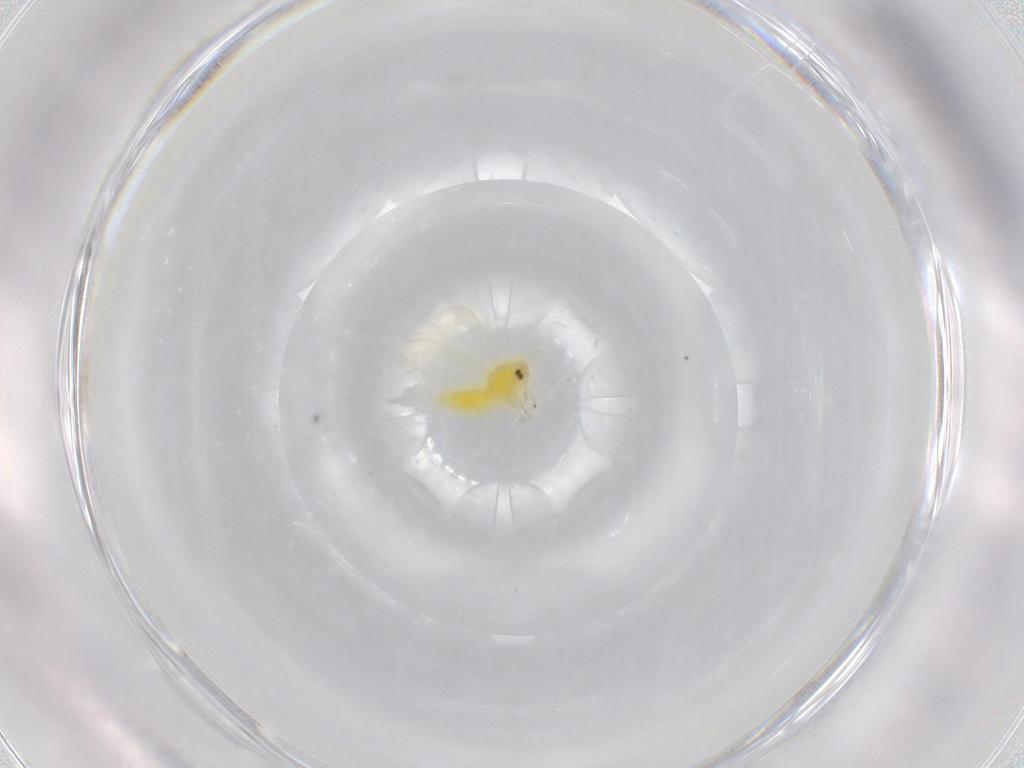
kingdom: Animalia
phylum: Arthropoda
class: Insecta
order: Hemiptera
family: Aleyrodidae
